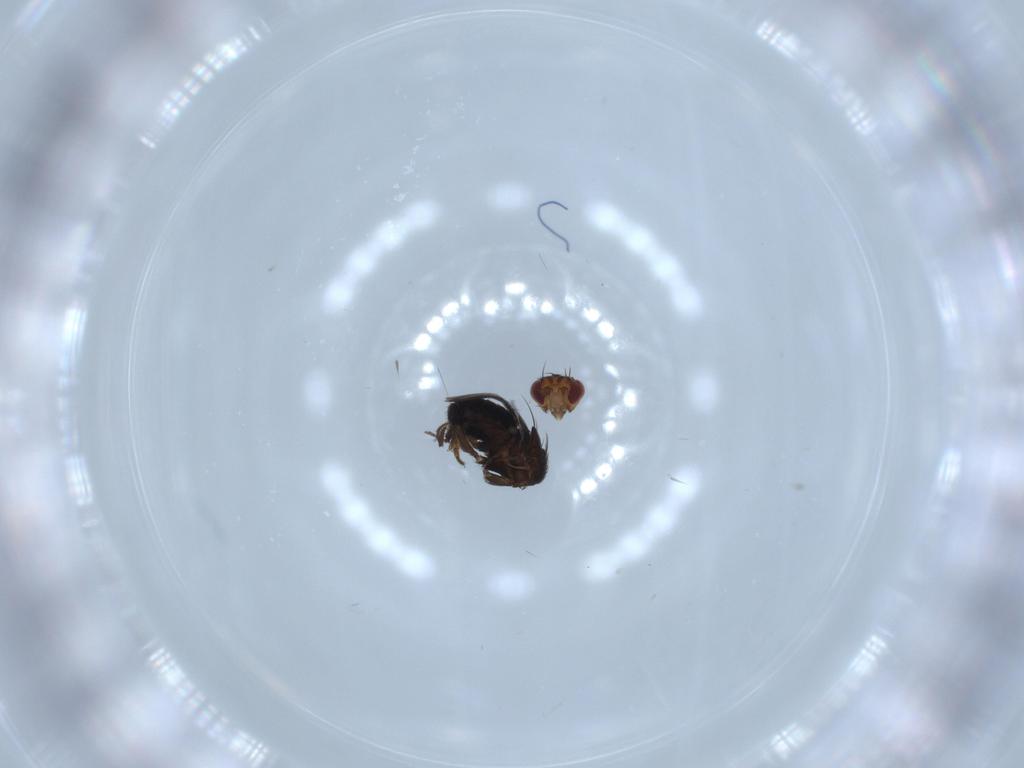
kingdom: Animalia
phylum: Arthropoda
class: Insecta
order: Diptera
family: Sphaeroceridae
